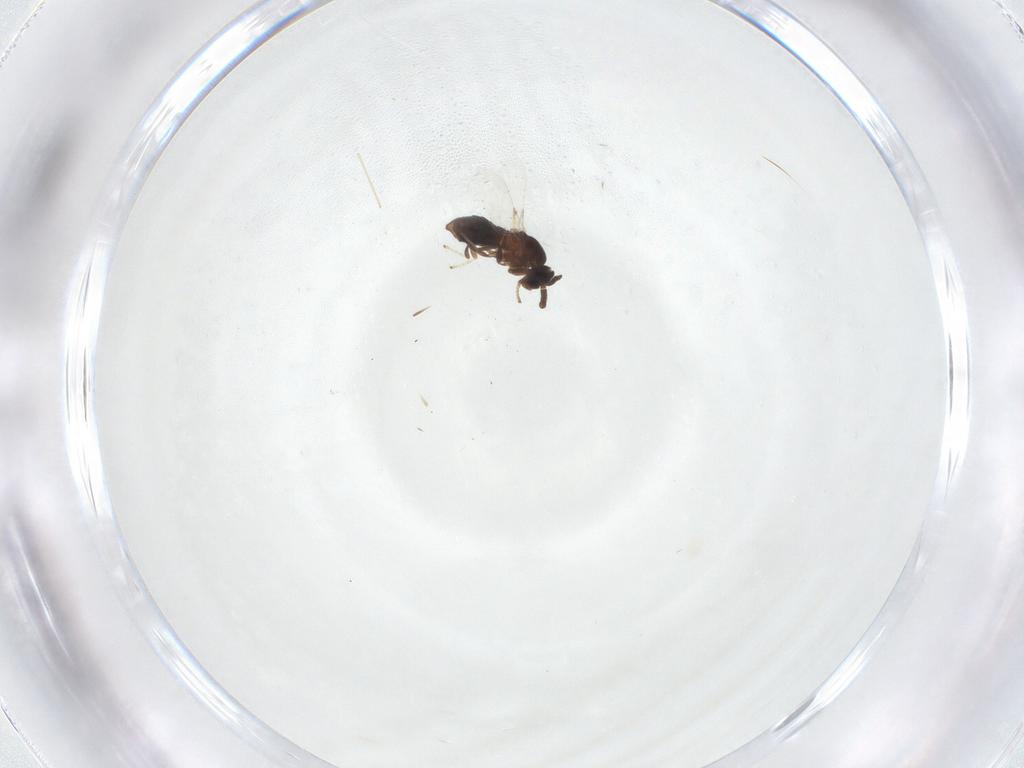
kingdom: Animalia
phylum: Arthropoda
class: Insecta
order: Diptera
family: Scatopsidae
